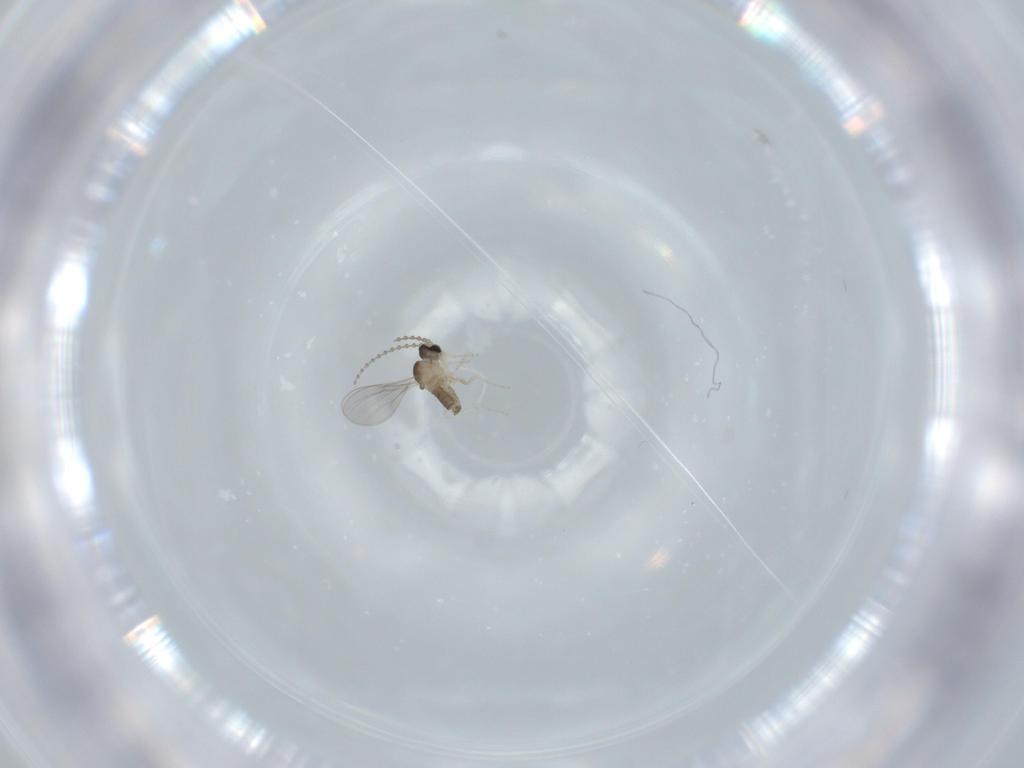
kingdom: Animalia
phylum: Arthropoda
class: Insecta
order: Diptera
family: Cecidomyiidae
